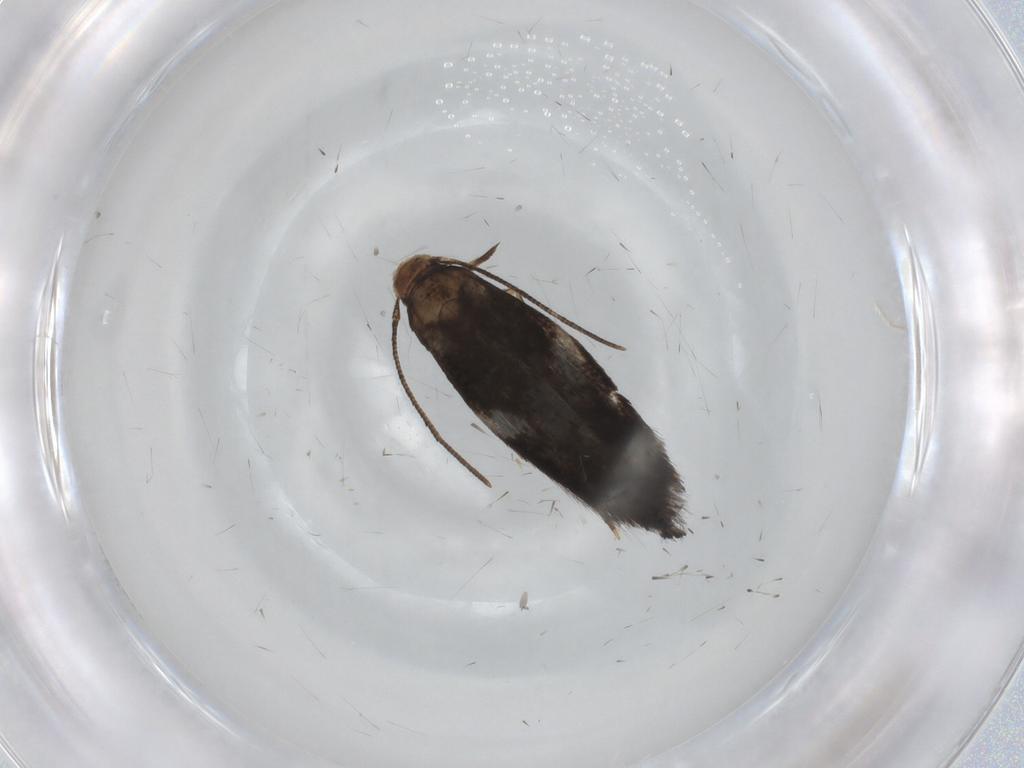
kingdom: Animalia
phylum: Arthropoda
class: Insecta
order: Lepidoptera
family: Gelechiidae
